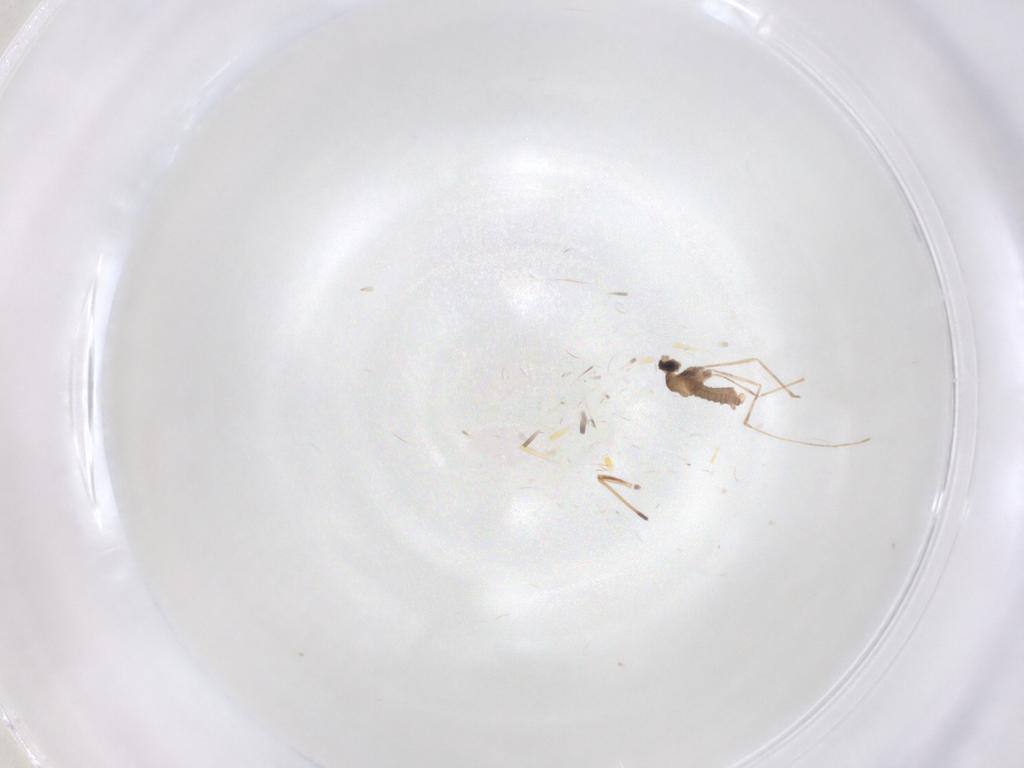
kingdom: Animalia
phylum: Arthropoda
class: Insecta
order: Diptera
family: Cecidomyiidae
